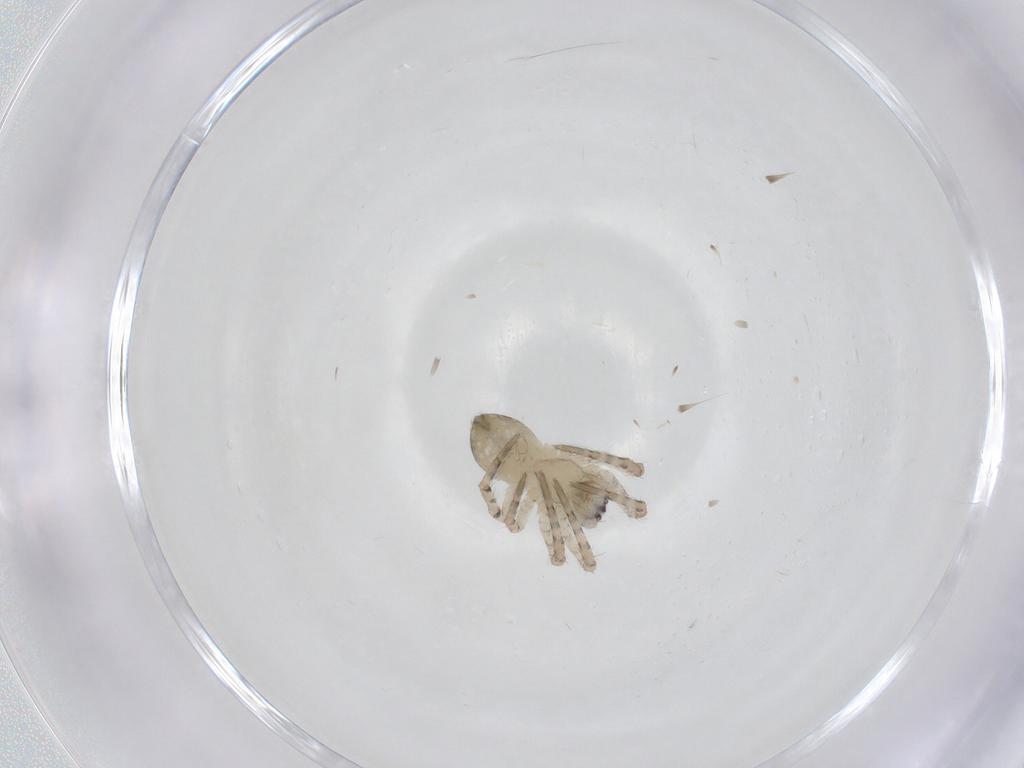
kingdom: Animalia
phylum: Arthropoda
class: Arachnida
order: Araneae
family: Araneidae
